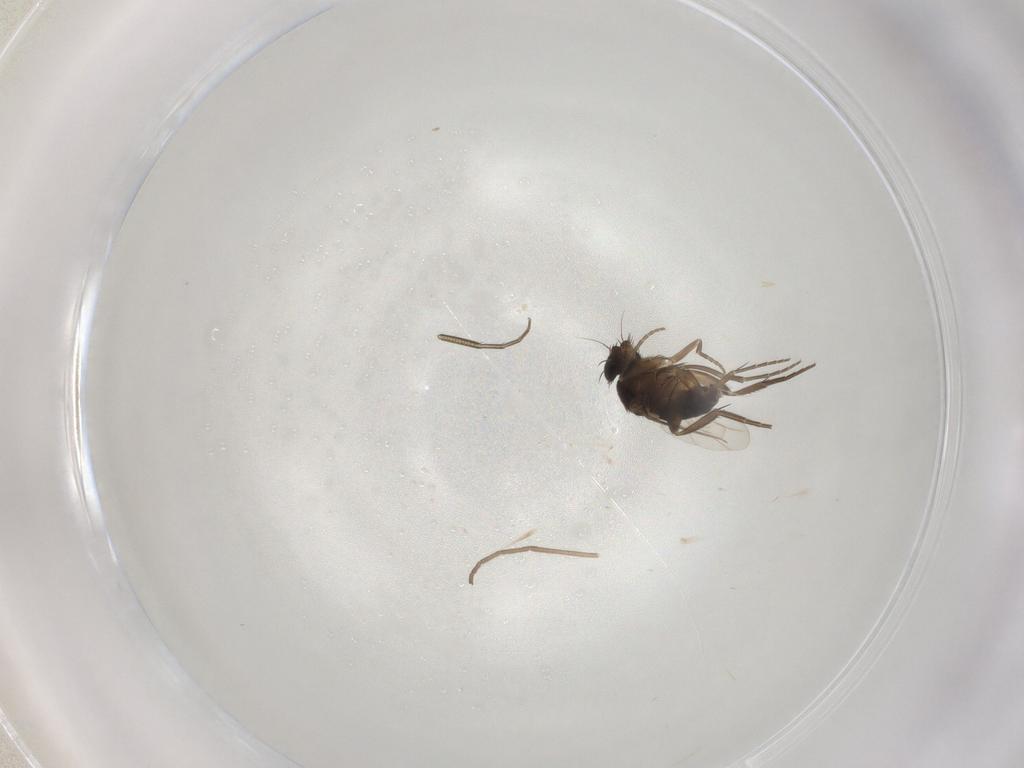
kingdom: Animalia
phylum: Arthropoda
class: Insecta
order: Diptera
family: Phoridae
